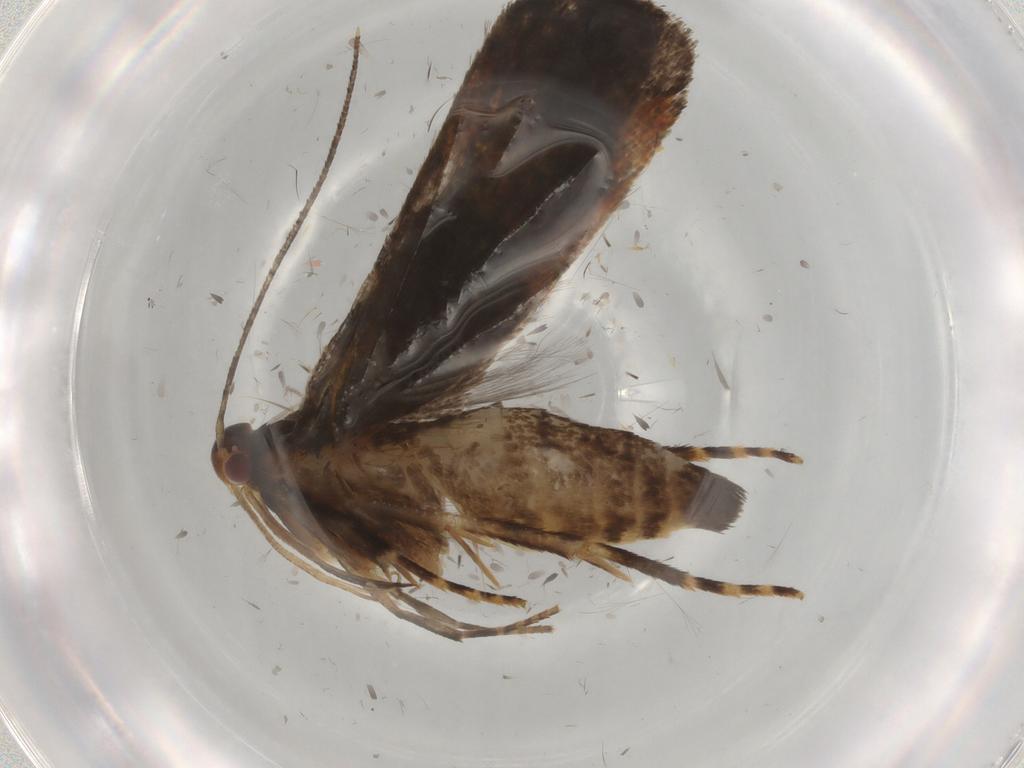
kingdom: Animalia
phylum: Arthropoda
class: Insecta
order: Lepidoptera
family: Gelechiidae
